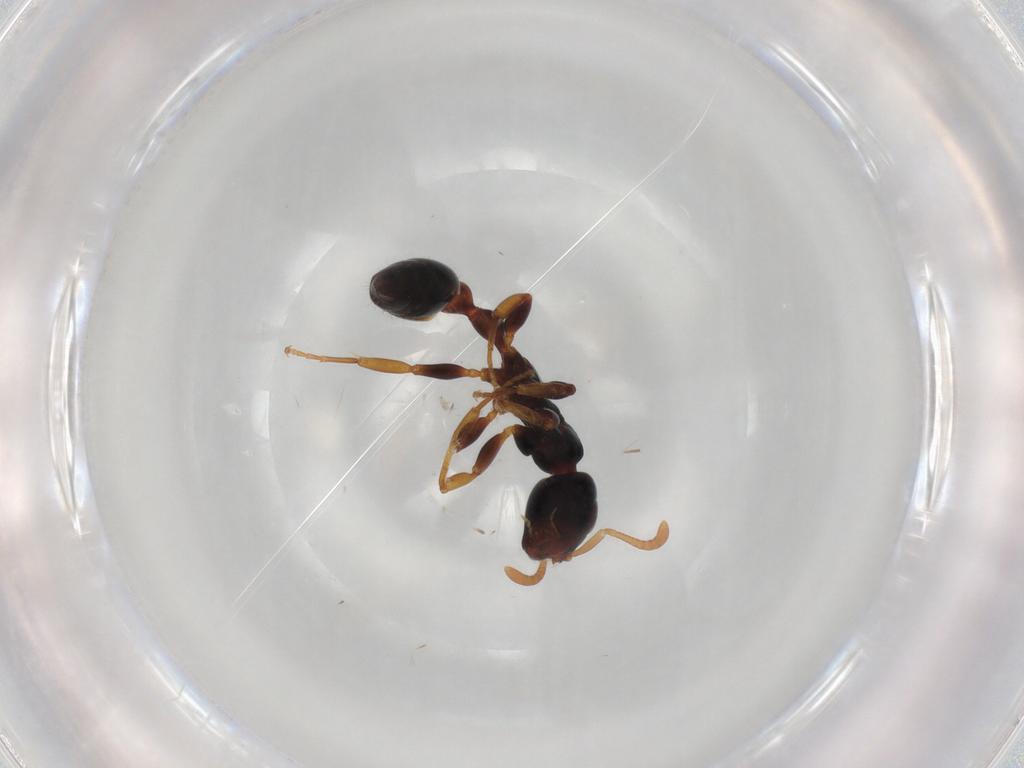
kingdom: Animalia
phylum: Arthropoda
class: Insecta
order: Hymenoptera
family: Formicidae
